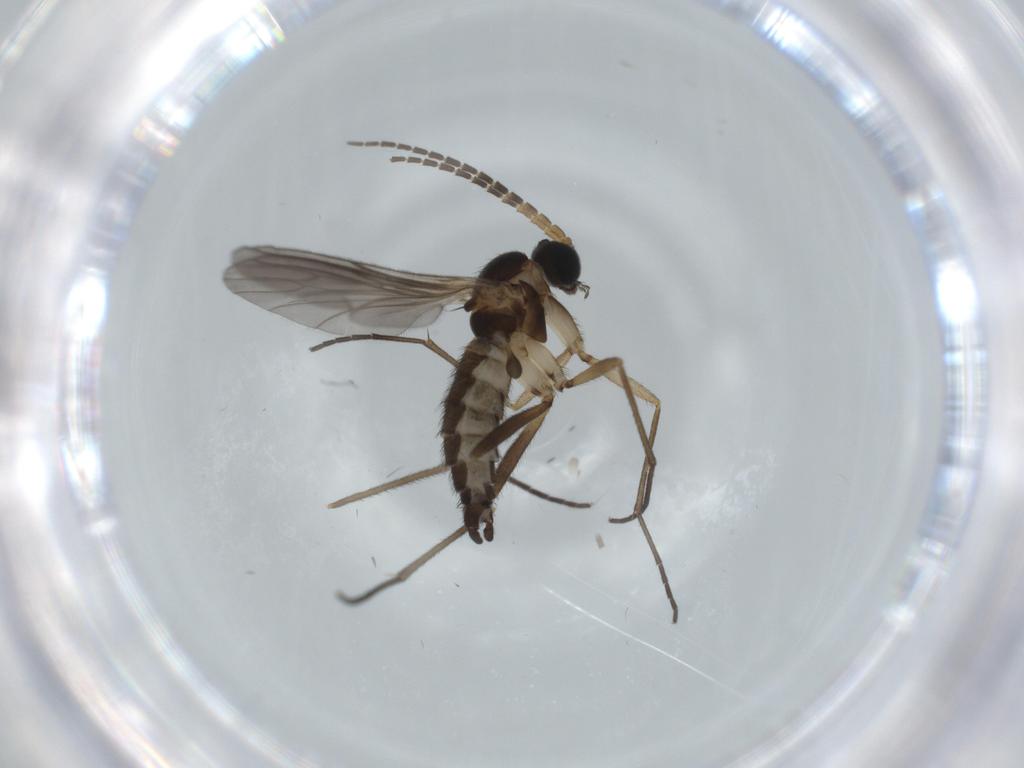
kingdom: Animalia
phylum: Arthropoda
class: Insecta
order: Diptera
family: Sciaridae
